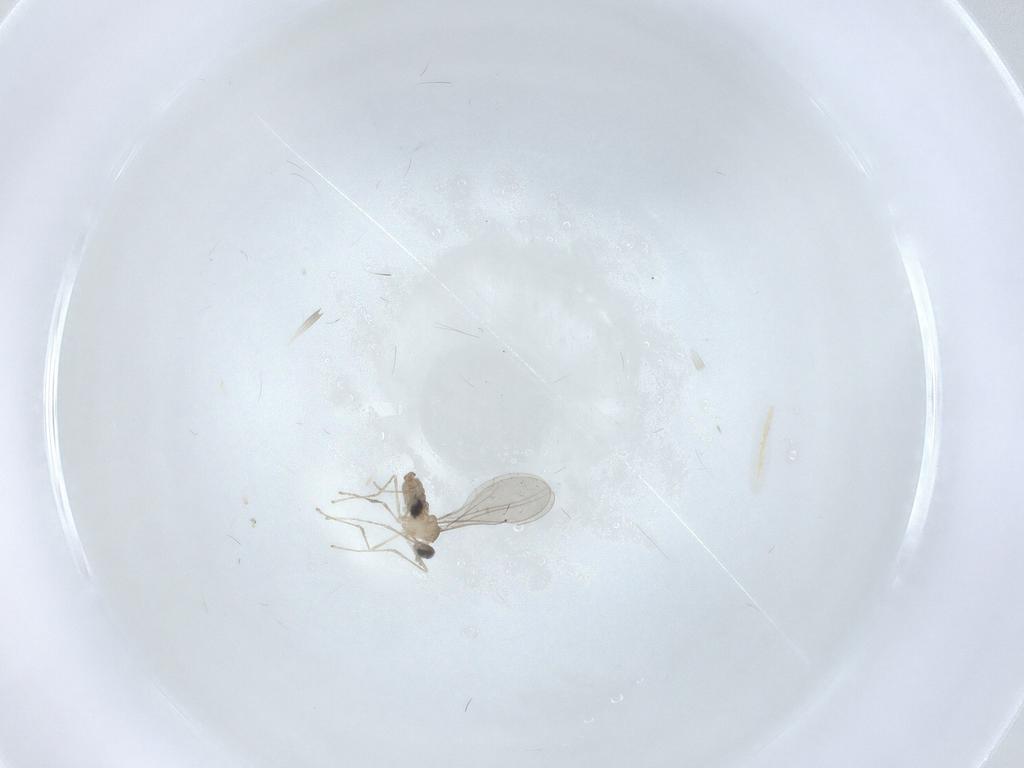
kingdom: Animalia
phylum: Arthropoda
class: Insecta
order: Diptera
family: Cecidomyiidae
